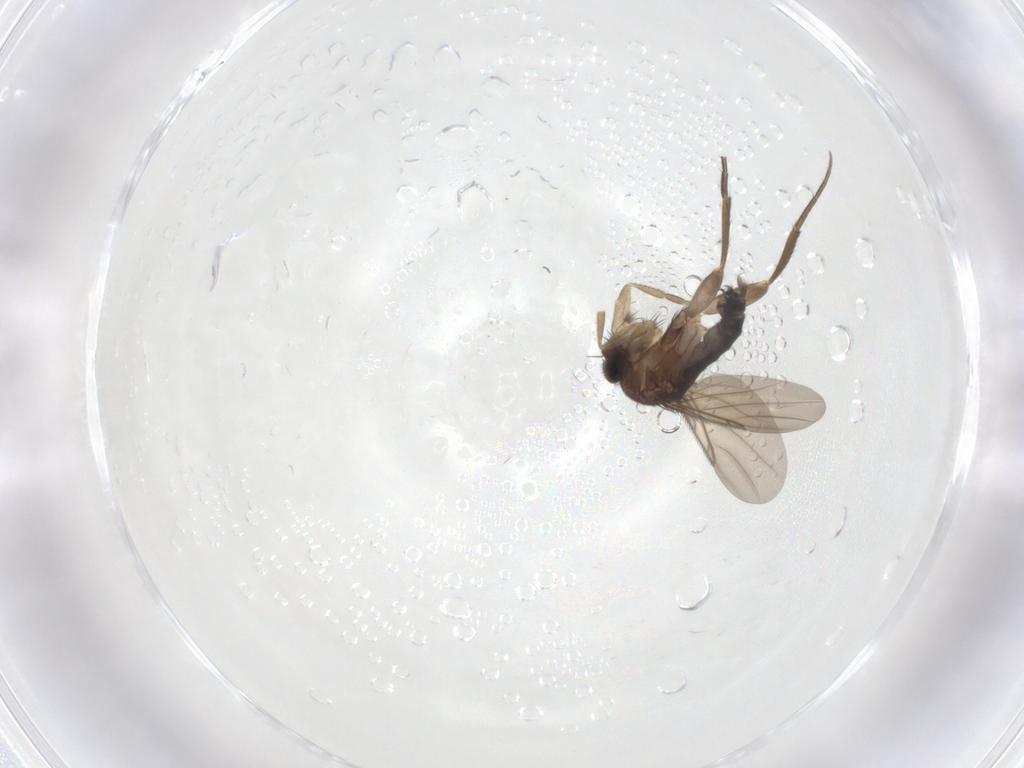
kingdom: Animalia
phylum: Arthropoda
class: Insecta
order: Diptera
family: Phoridae
